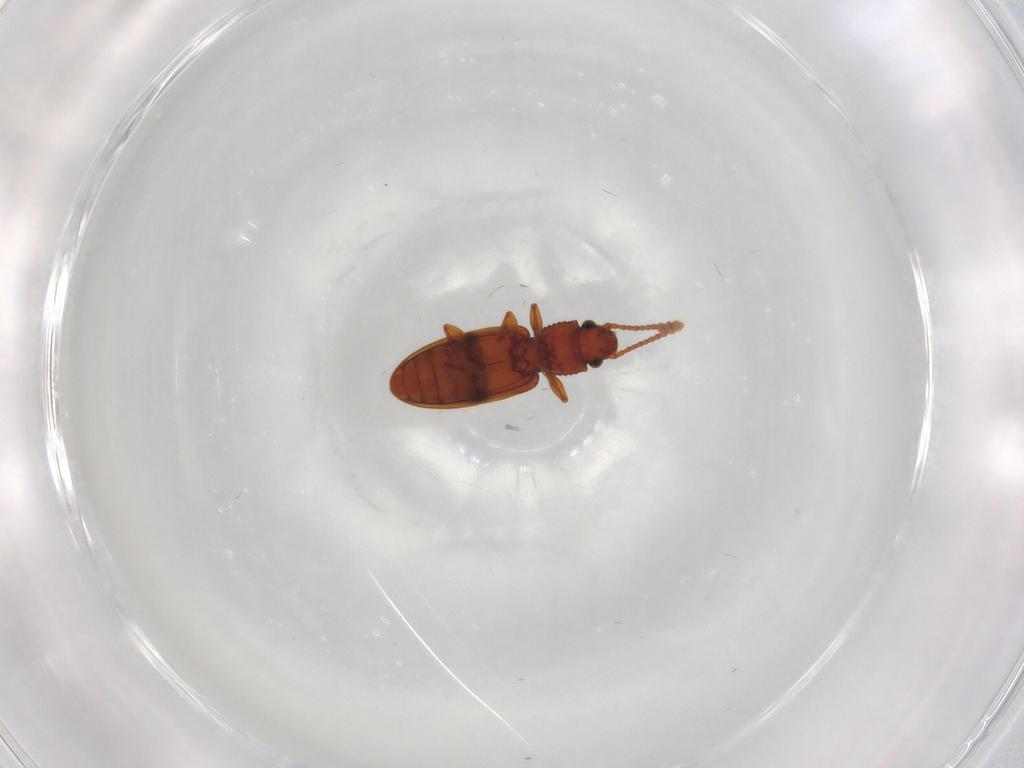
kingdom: Animalia
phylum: Arthropoda
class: Insecta
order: Coleoptera
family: Silvanidae
